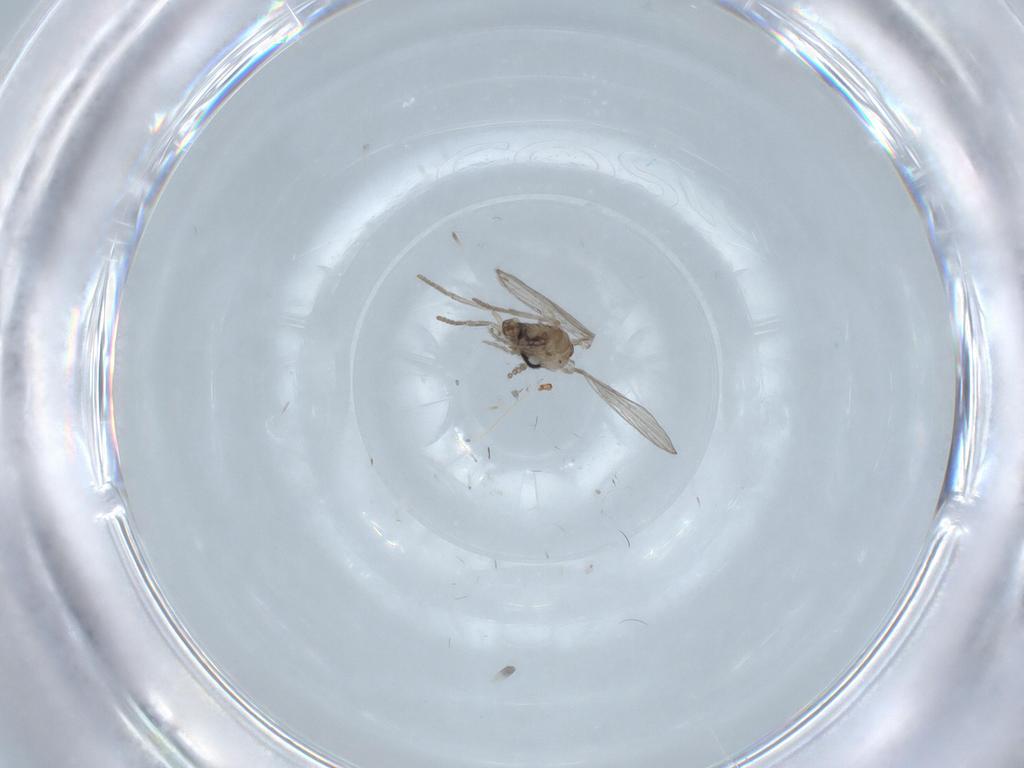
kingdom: Animalia
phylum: Arthropoda
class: Insecta
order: Diptera
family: Psychodidae
